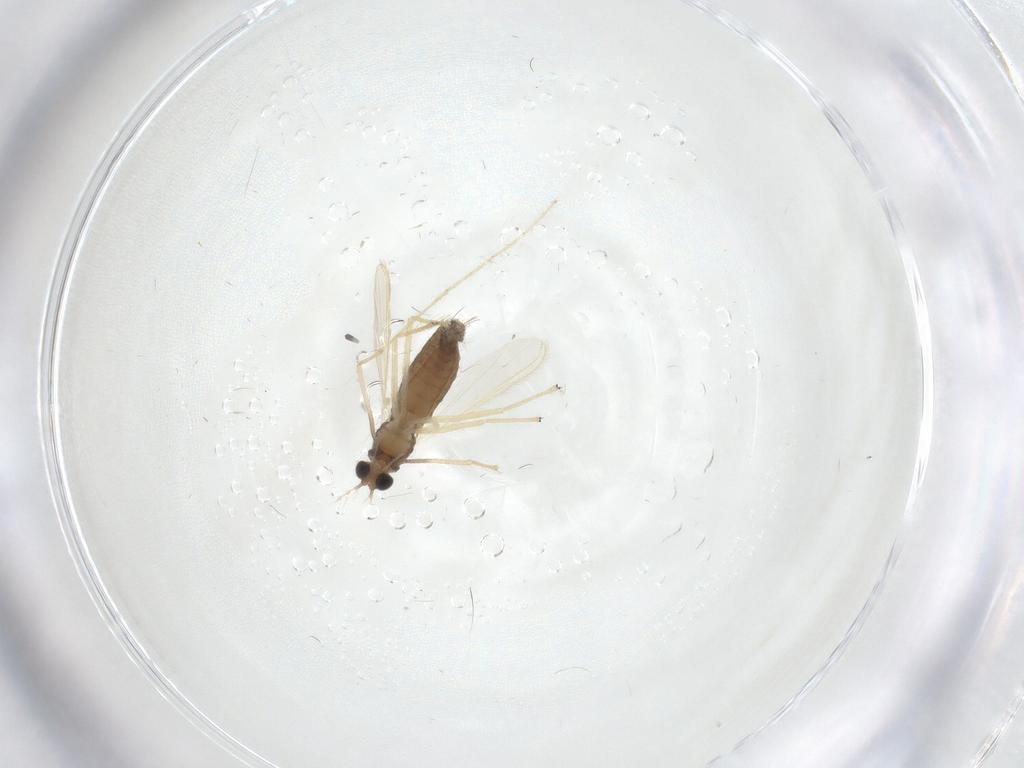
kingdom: Animalia
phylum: Arthropoda
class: Insecta
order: Diptera
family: Chironomidae
